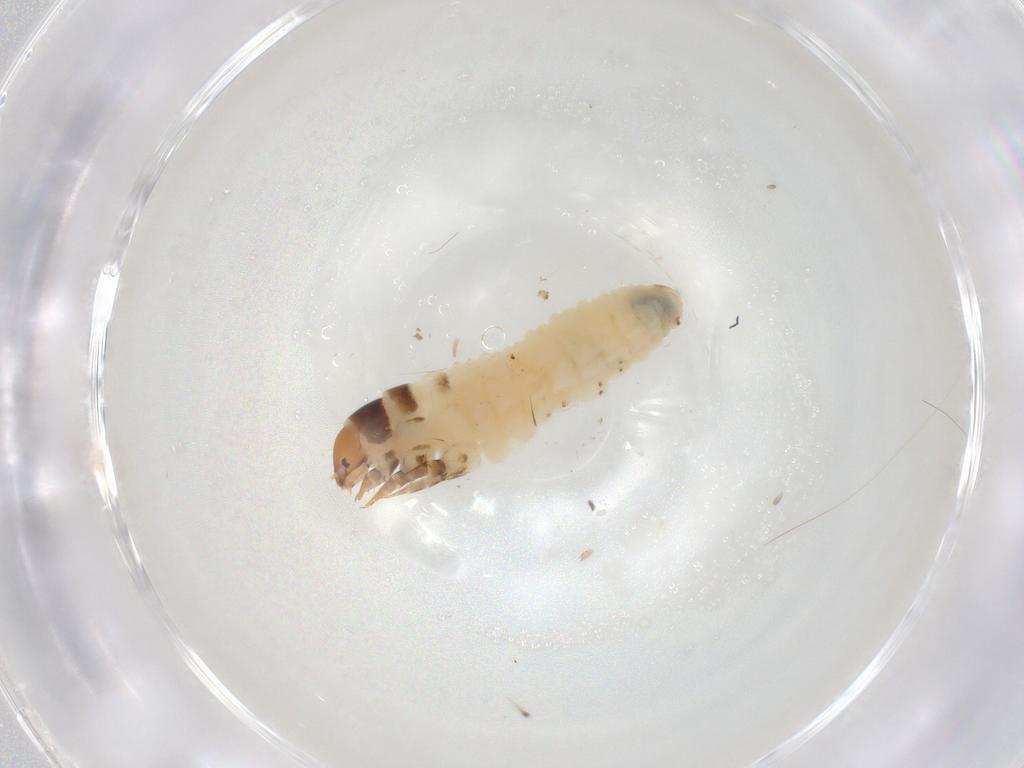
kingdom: Animalia
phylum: Arthropoda
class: Insecta
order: Lepidoptera
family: Psychidae
